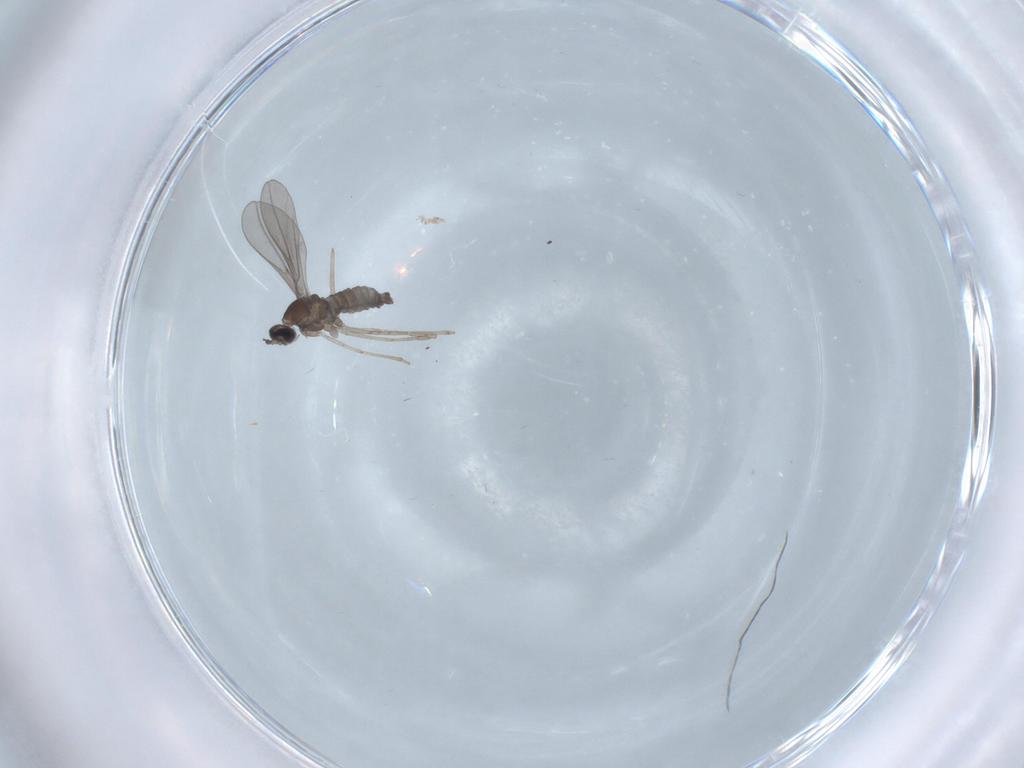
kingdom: Animalia
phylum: Arthropoda
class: Insecta
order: Diptera
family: Cecidomyiidae
